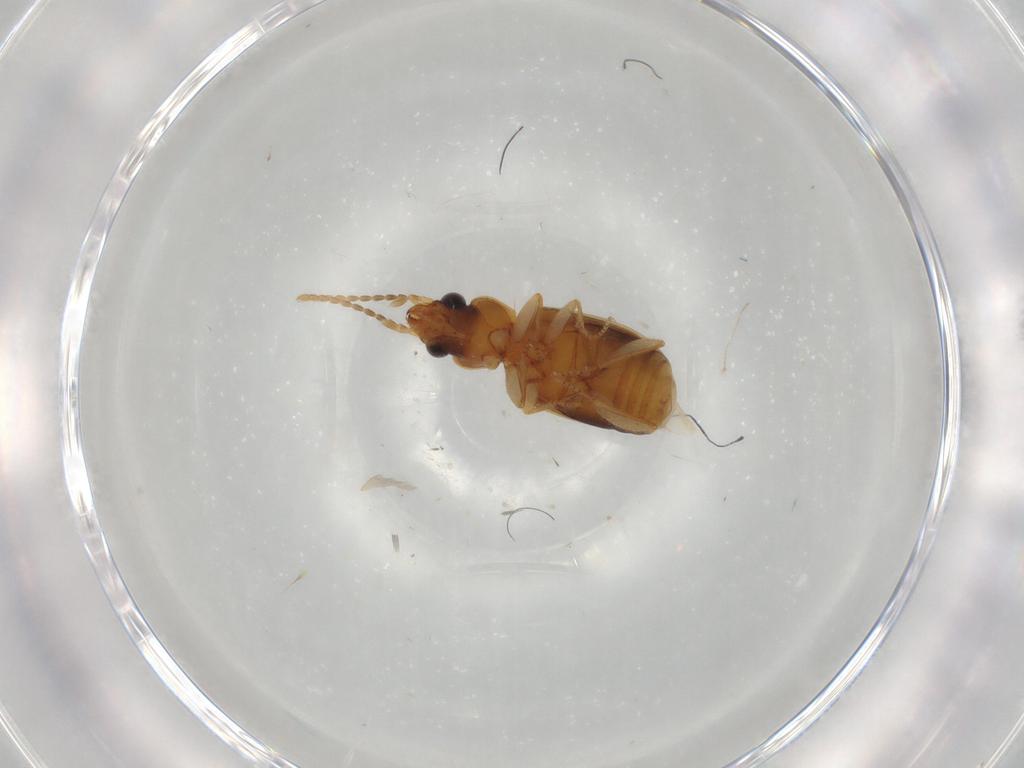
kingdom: Animalia
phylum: Arthropoda
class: Insecta
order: Coleoptera
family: Carabidae
